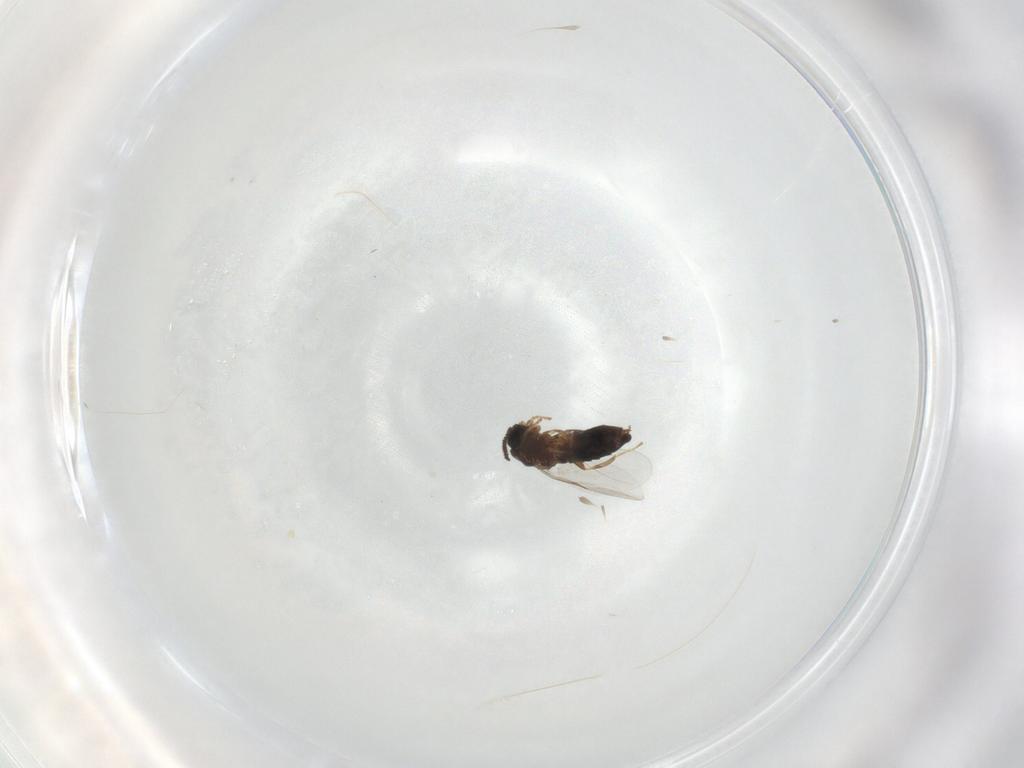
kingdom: Animalia
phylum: Arthropoda
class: Insecta
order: Diptera
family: Scatopsidae
